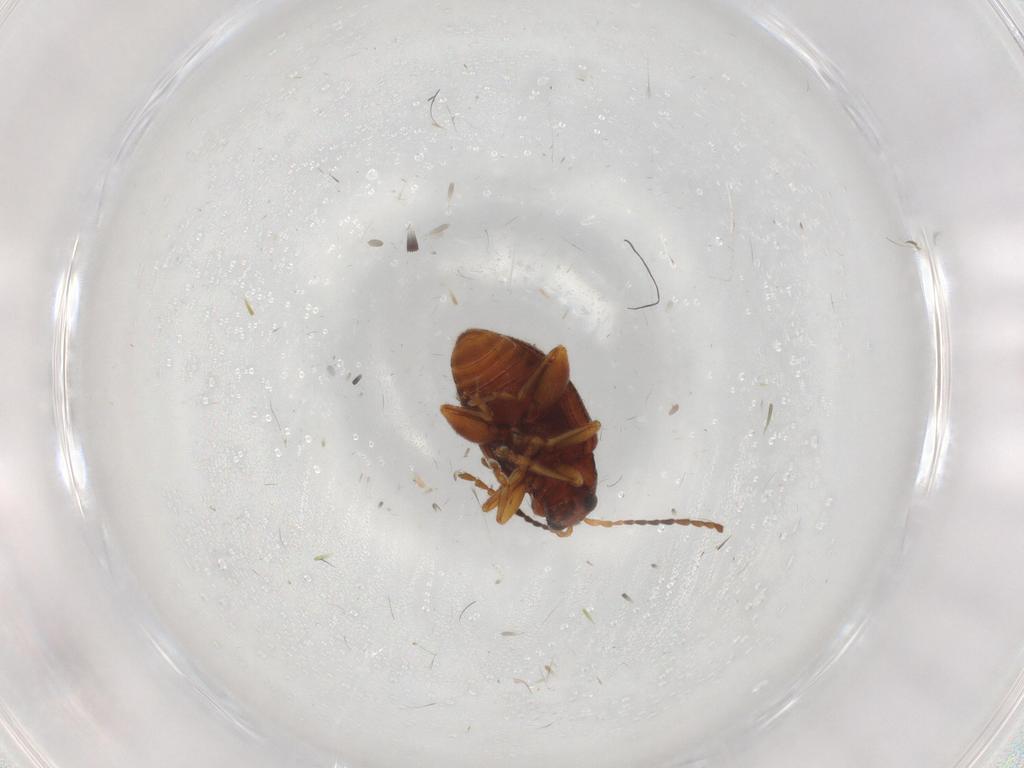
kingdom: Animalia
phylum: Arthropoda
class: Insecta
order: Coleoptera
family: Chrysomelidae
